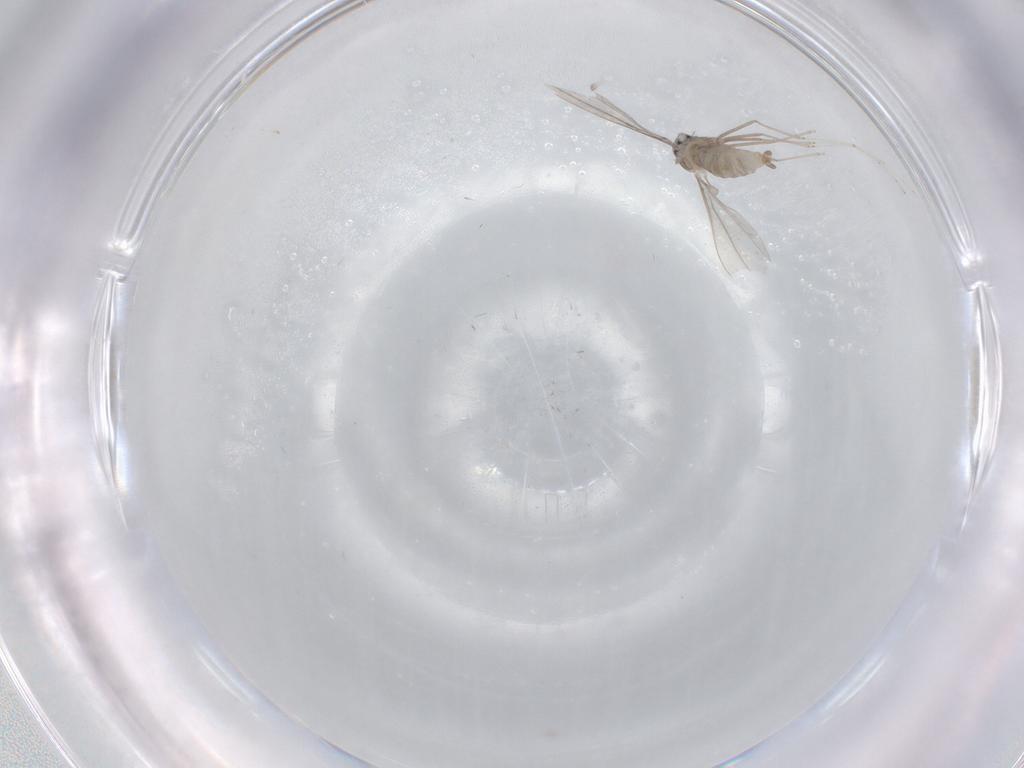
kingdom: Animalia
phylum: Arthropoda
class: Insecta
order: Diptera
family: Cecidomyiidae
